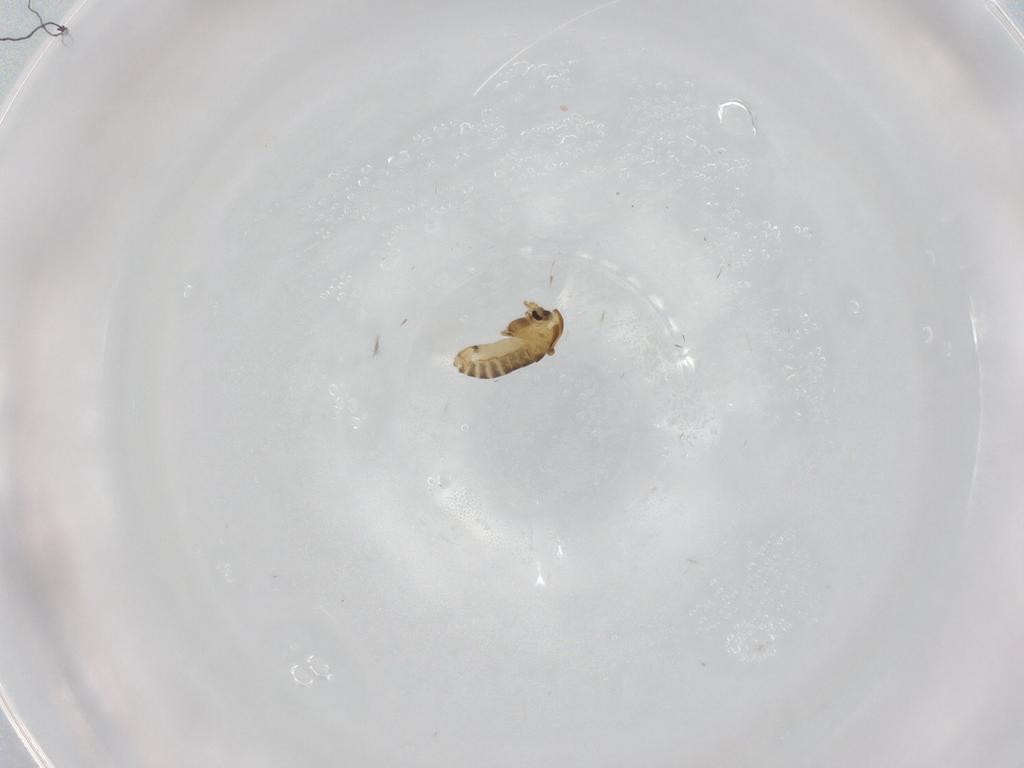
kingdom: Animalia
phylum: Arthropoda
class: Insecta
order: Diptera
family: Chironomidae
